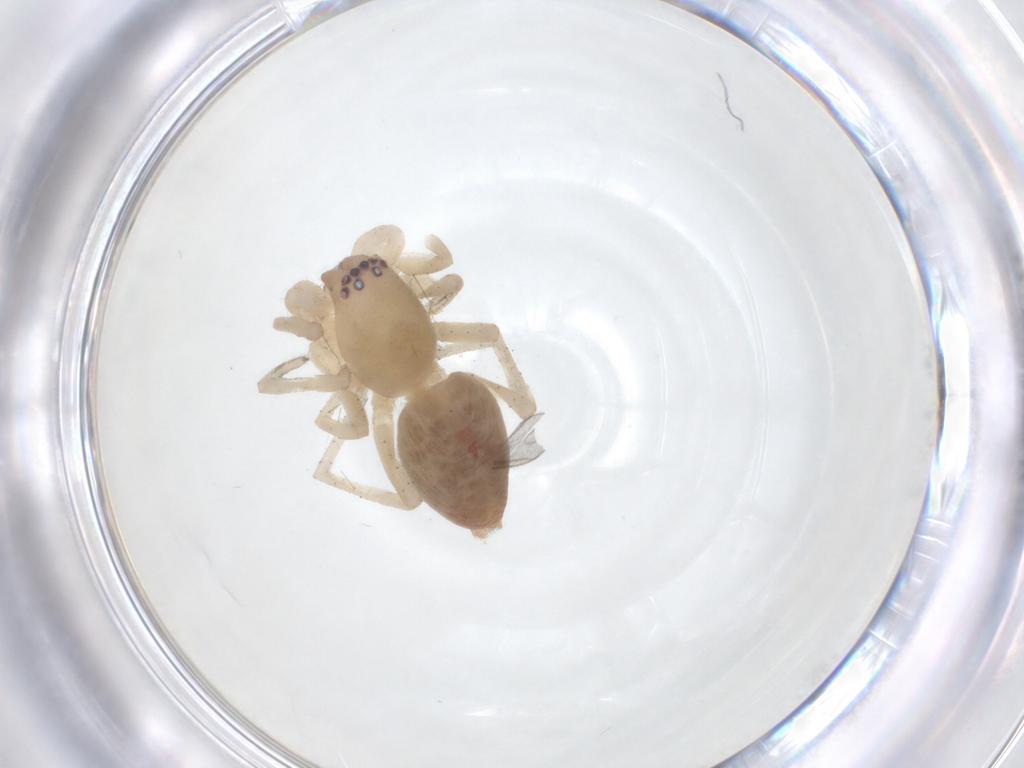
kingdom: Animalia
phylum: Arthropoda
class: Arachnida
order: Araneae
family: Clubionidae
